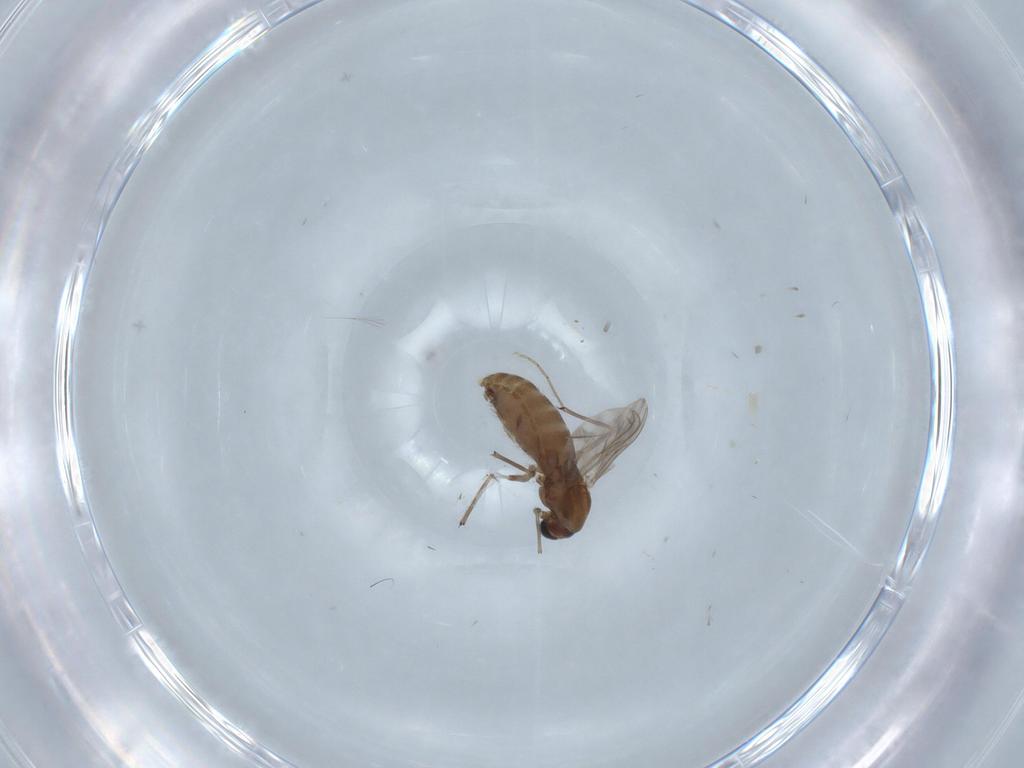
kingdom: Animalia
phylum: Arthropoda
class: Insecta
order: Diptera
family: Chironomidae
